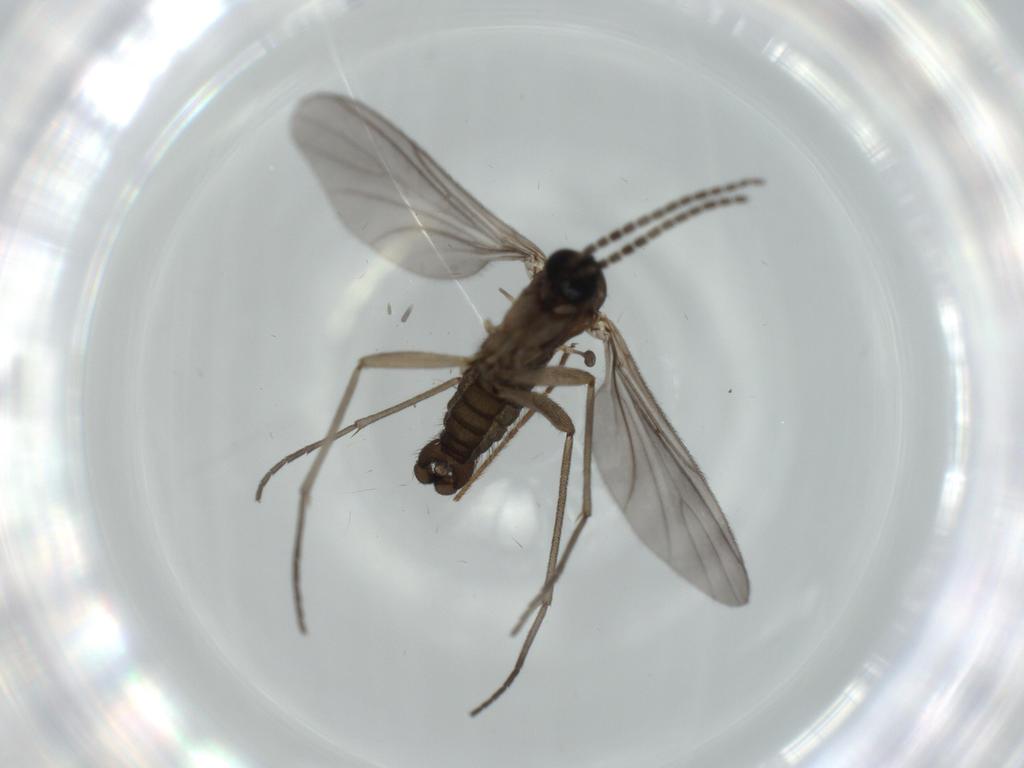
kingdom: Animalia
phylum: Arthropoda
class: Insecta
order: Diptera
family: Sciaridae
